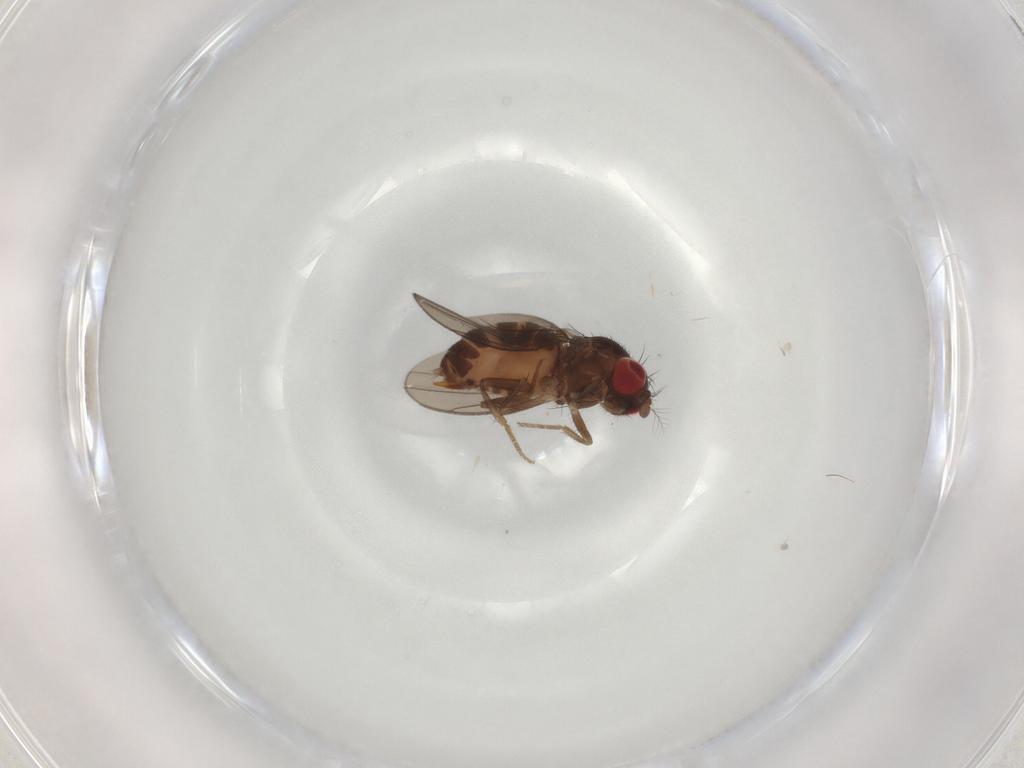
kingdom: Animalia
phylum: Arthropoda
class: Insecta
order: Diptera
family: Drosophilidae
